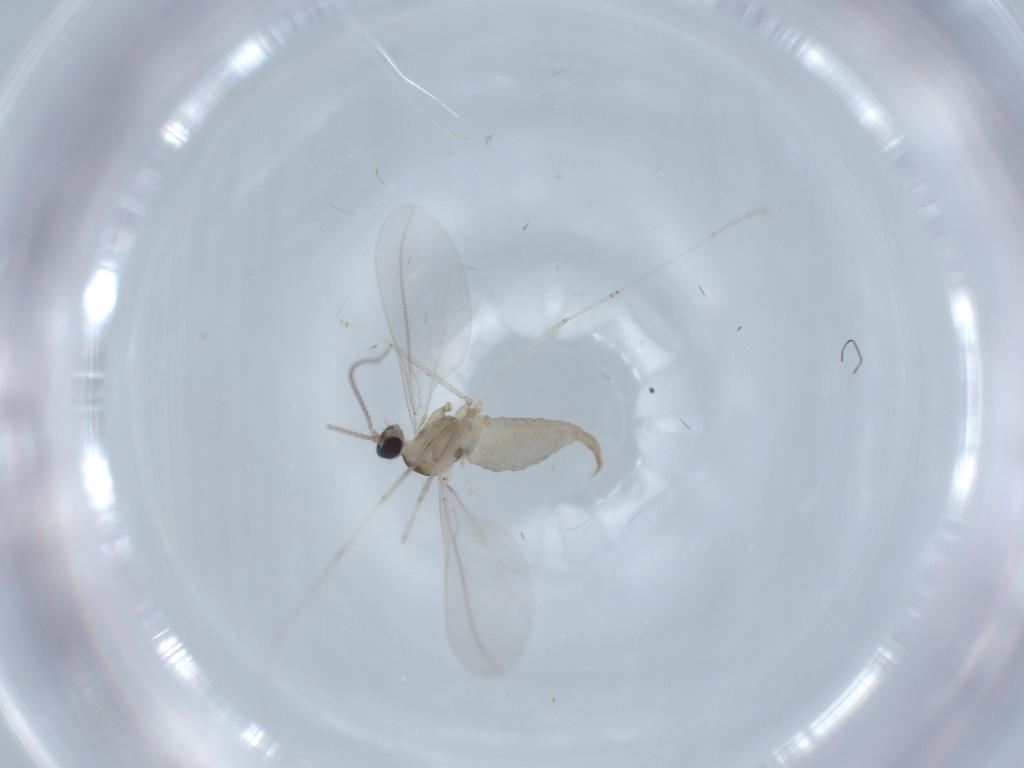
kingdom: Animalia
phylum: Arthropoda
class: Insecta
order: Diptera
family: Cecidomyiidae
